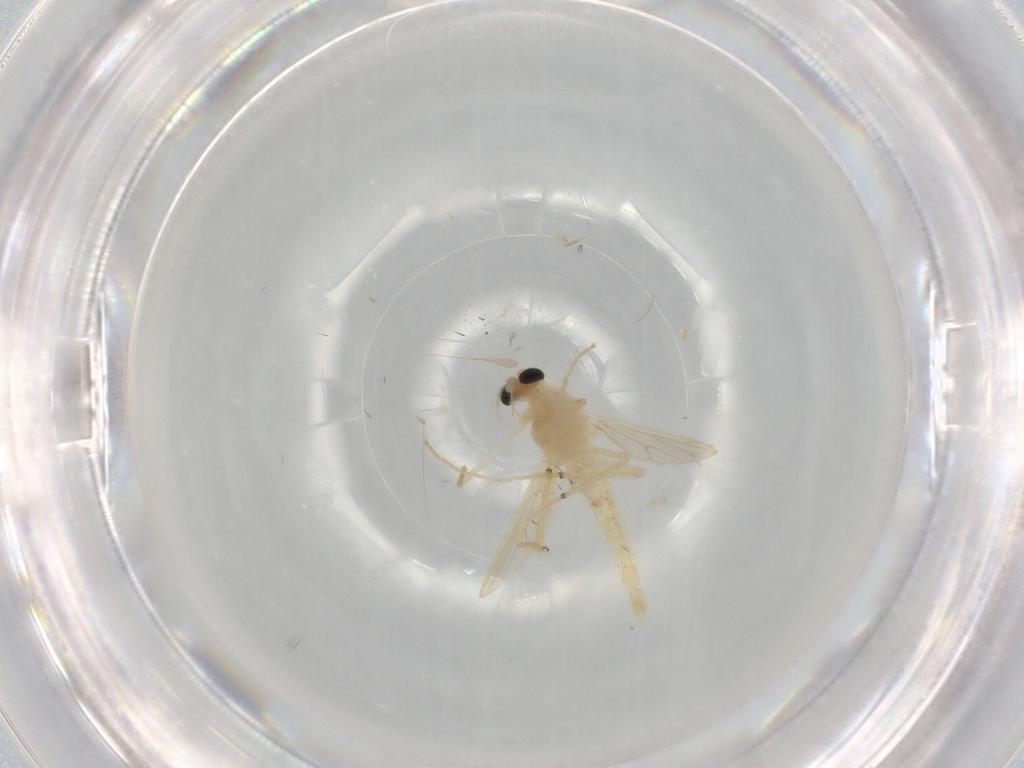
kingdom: Animalia
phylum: Arthropoda
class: Insecta
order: Diptera
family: Chironomidae
